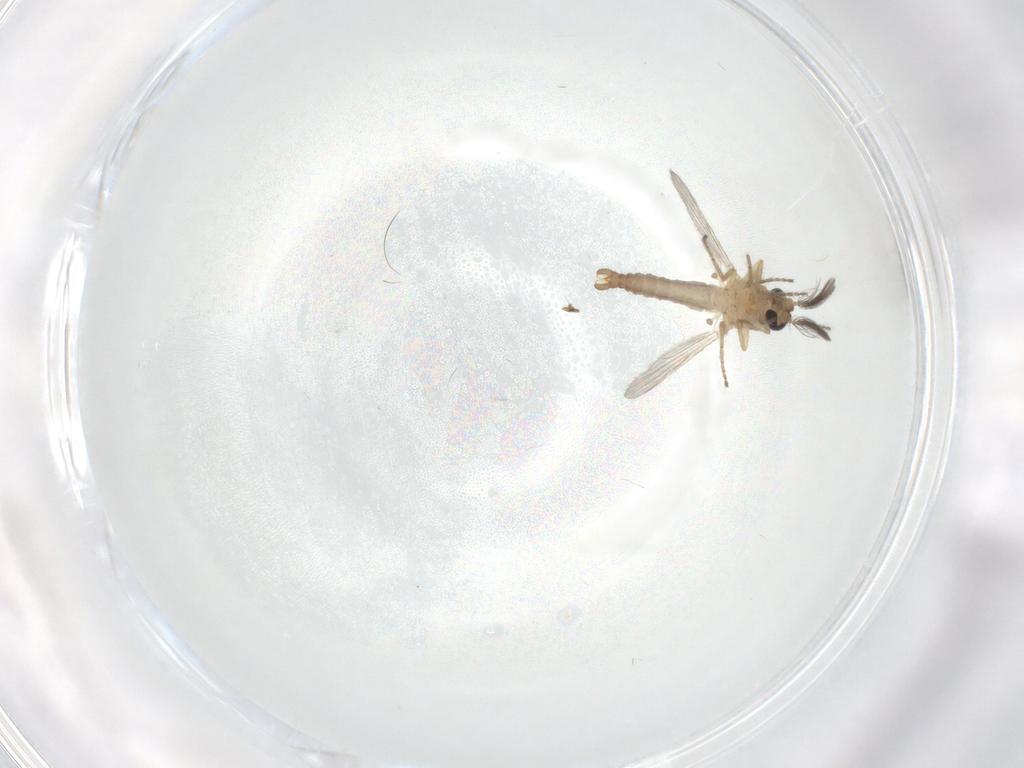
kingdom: Animalia
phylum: Arthropoda
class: Insecta
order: Diptera
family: Ceratopogonidae
